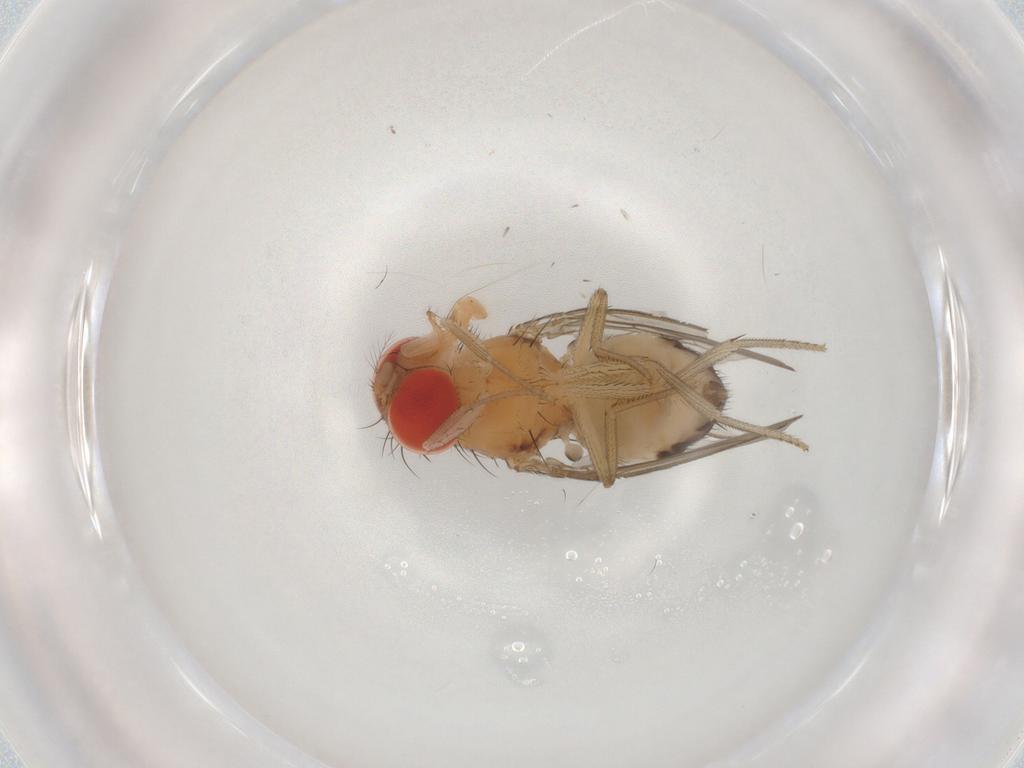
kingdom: Animalia
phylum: Arthropoda
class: Insecta
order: Diptera
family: Drosophilidae
